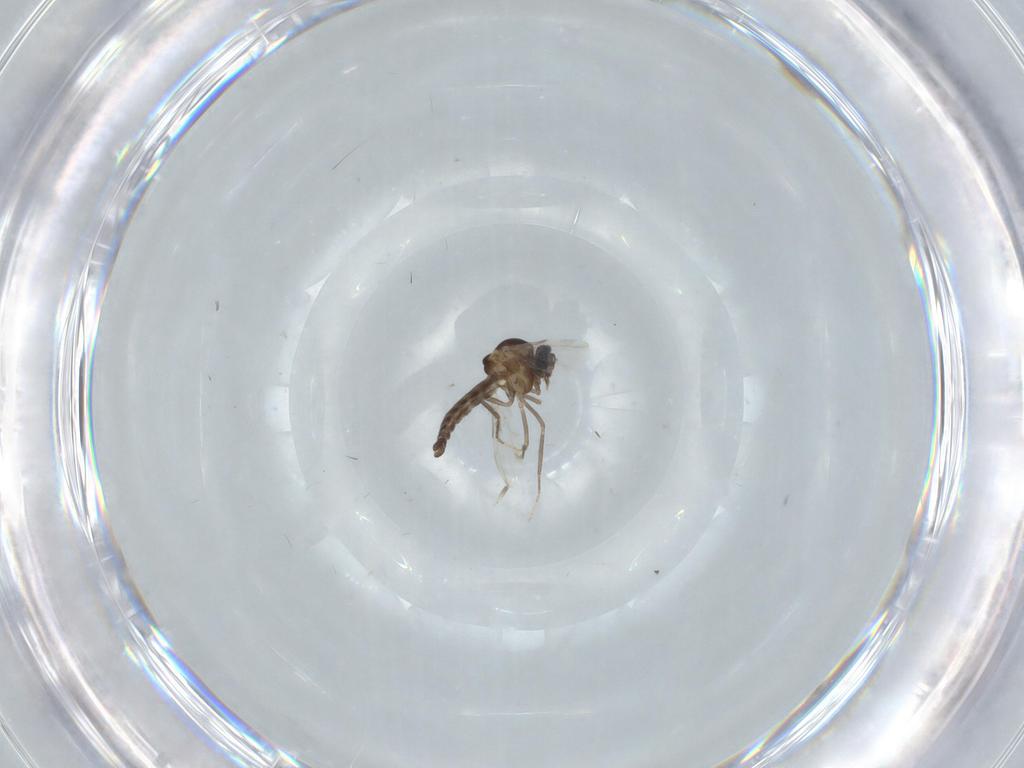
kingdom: Animalia
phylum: Arthropoda
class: Insecta
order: Diptera
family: Ceratopogonidae
